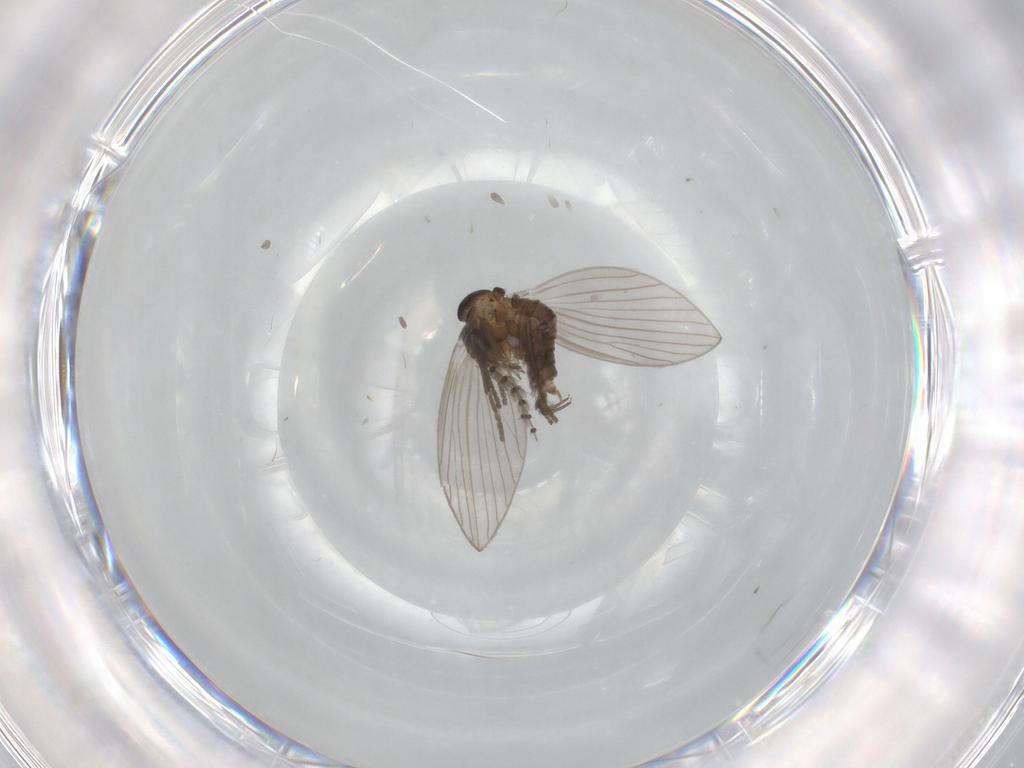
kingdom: Animalia
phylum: Arthropoda
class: Insecta
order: Diptera
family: Psychodidae
